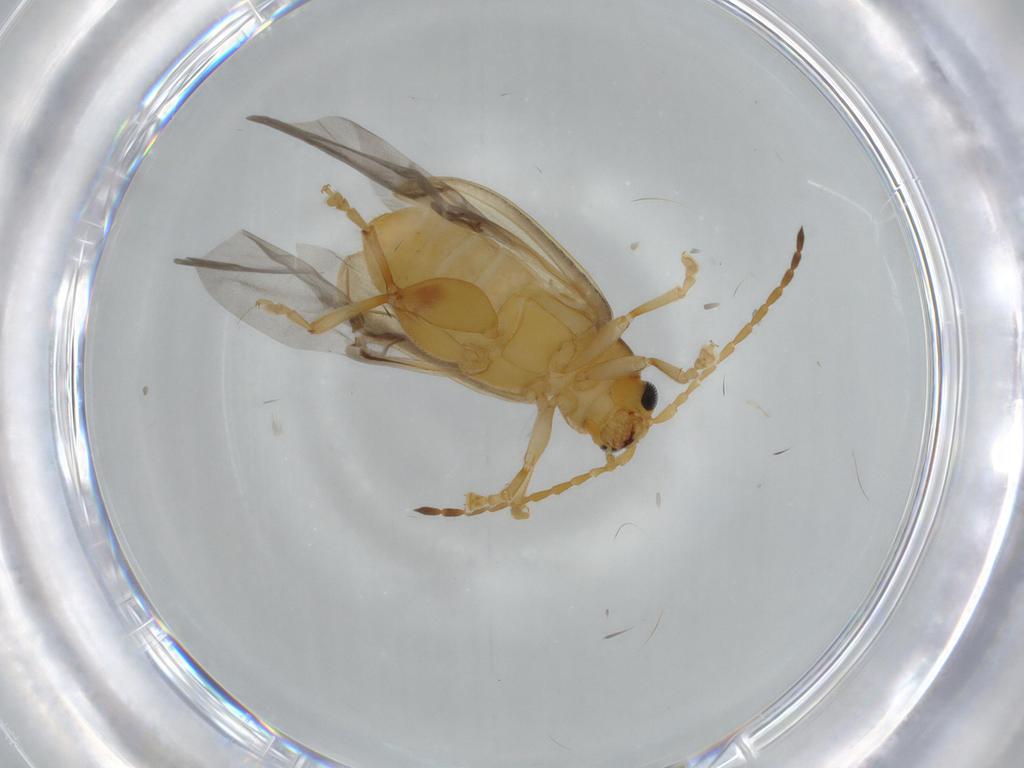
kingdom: Animalia
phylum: Arthropoda
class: Insecta
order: Coleoptera
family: Chrysomelidae
